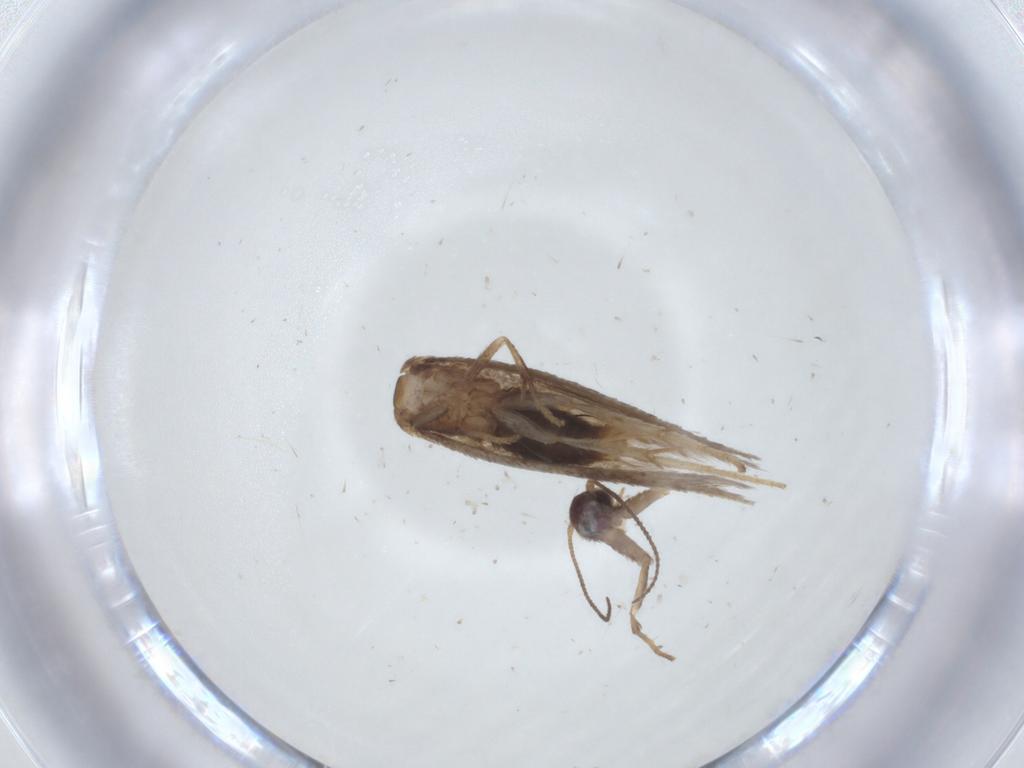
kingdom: Animalia
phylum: Arthropoda
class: Insecta
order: Lepidoptera
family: Nepticulidae
